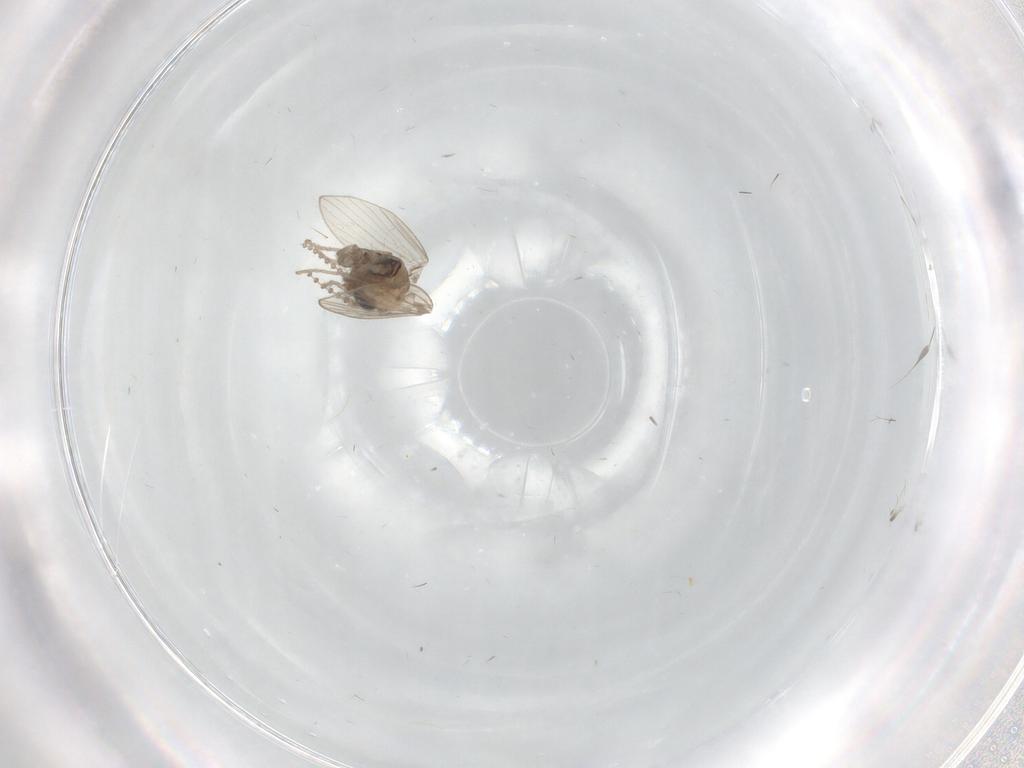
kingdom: Animalia
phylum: Arthropoda
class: Insecta
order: Diptera
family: Psychodidae
